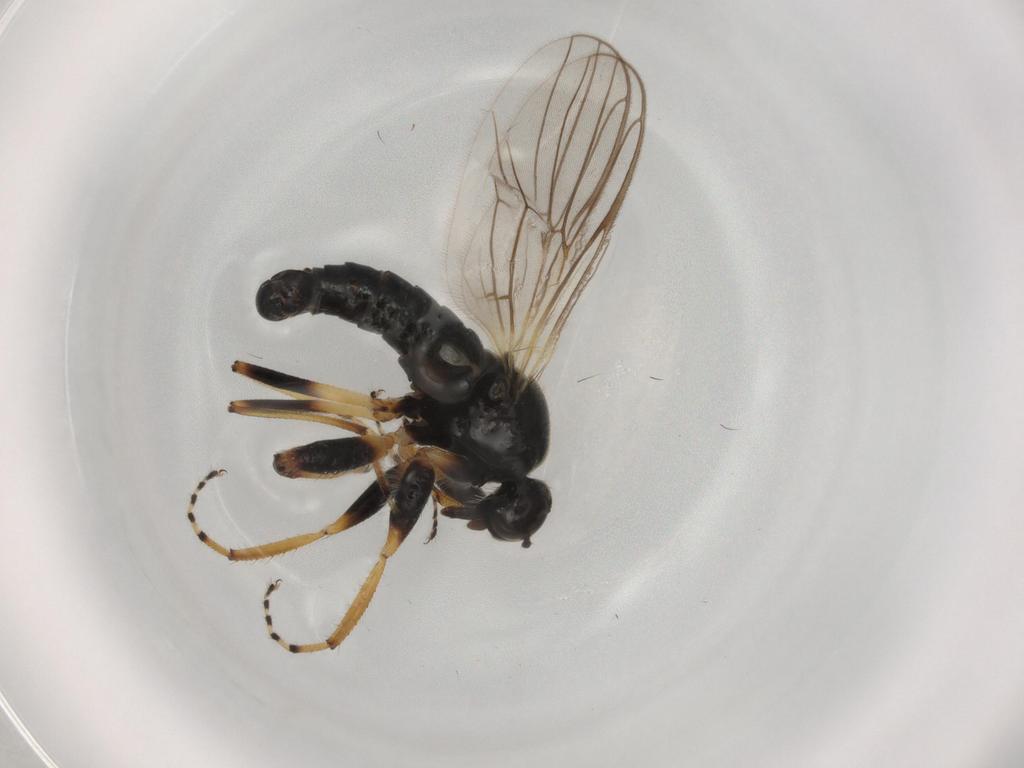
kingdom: Animalia
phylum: Arthropoda
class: Insecta
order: Diptera
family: Hybotidae
